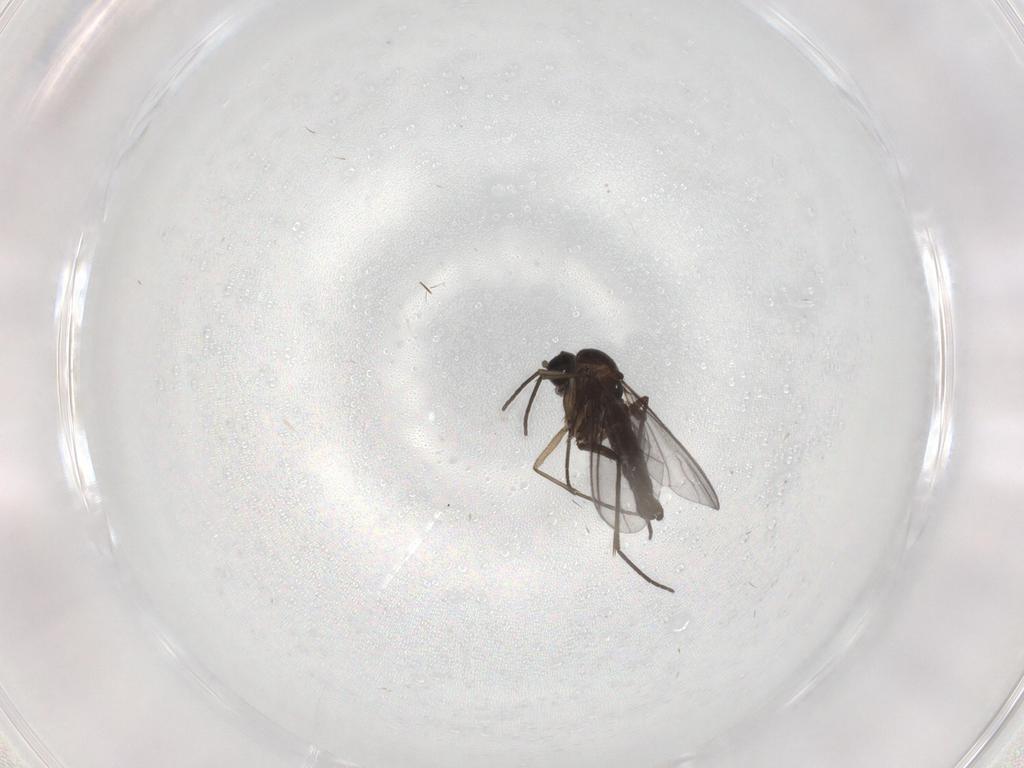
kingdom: Animalia
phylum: Arthropoda
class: Insecta
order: Diptera
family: Sciaridae
